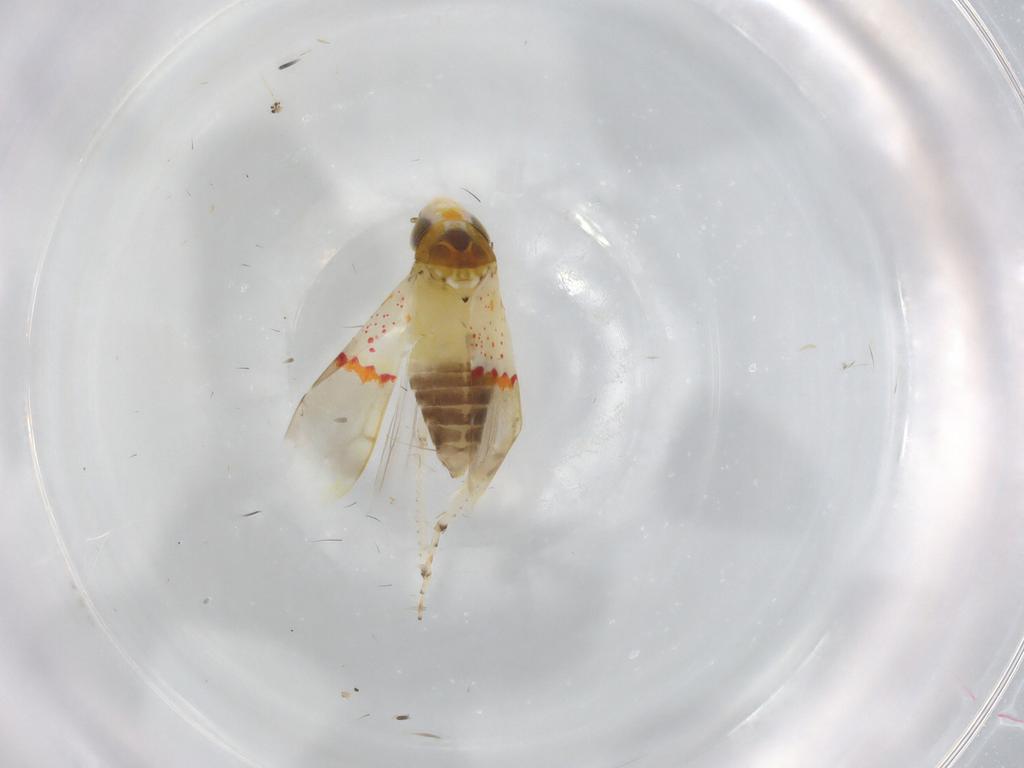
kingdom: Animalia
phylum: Arthropoda
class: Insecta
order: Hemiptera
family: Cicadellidae
